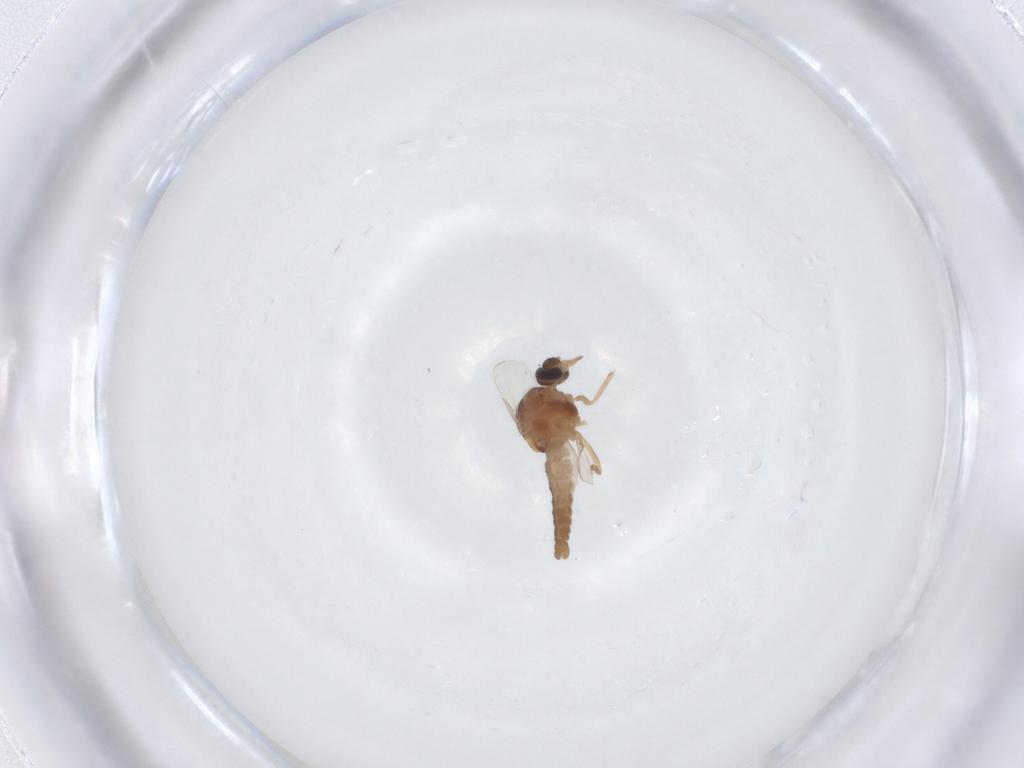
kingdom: Animalia
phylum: Arthropoda
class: Insecta
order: Diptera
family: Ceratopogonidae
